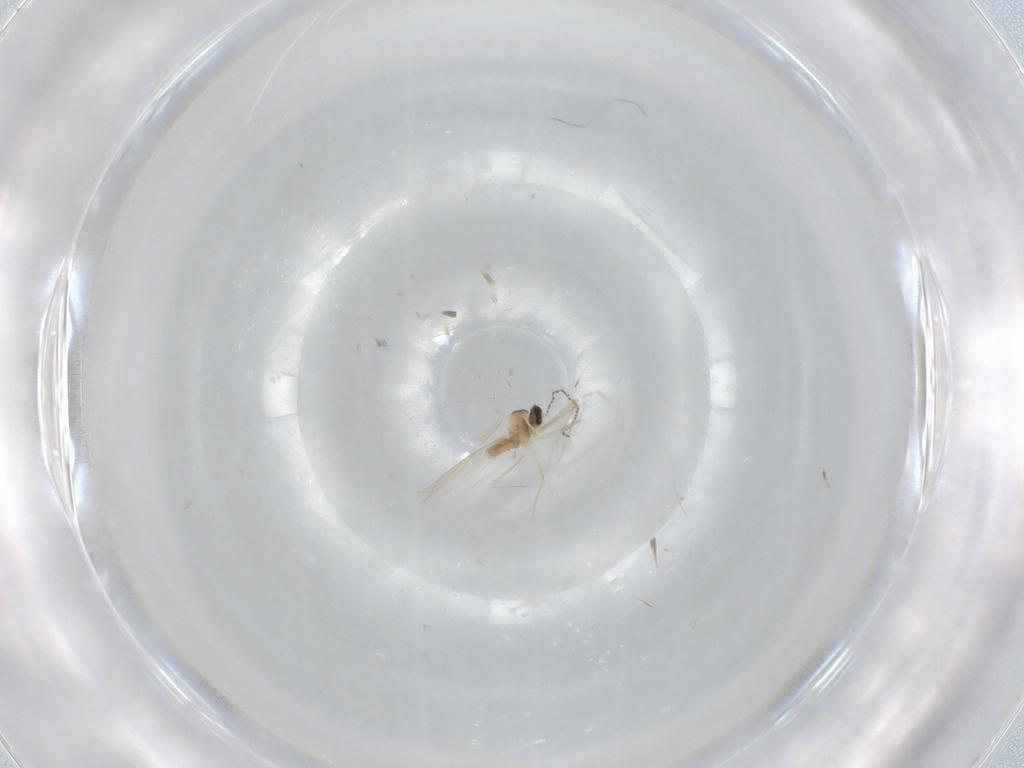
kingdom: Animalia
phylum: Arthropoda
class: Insecta
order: Diptera
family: Cecidomyiidae
